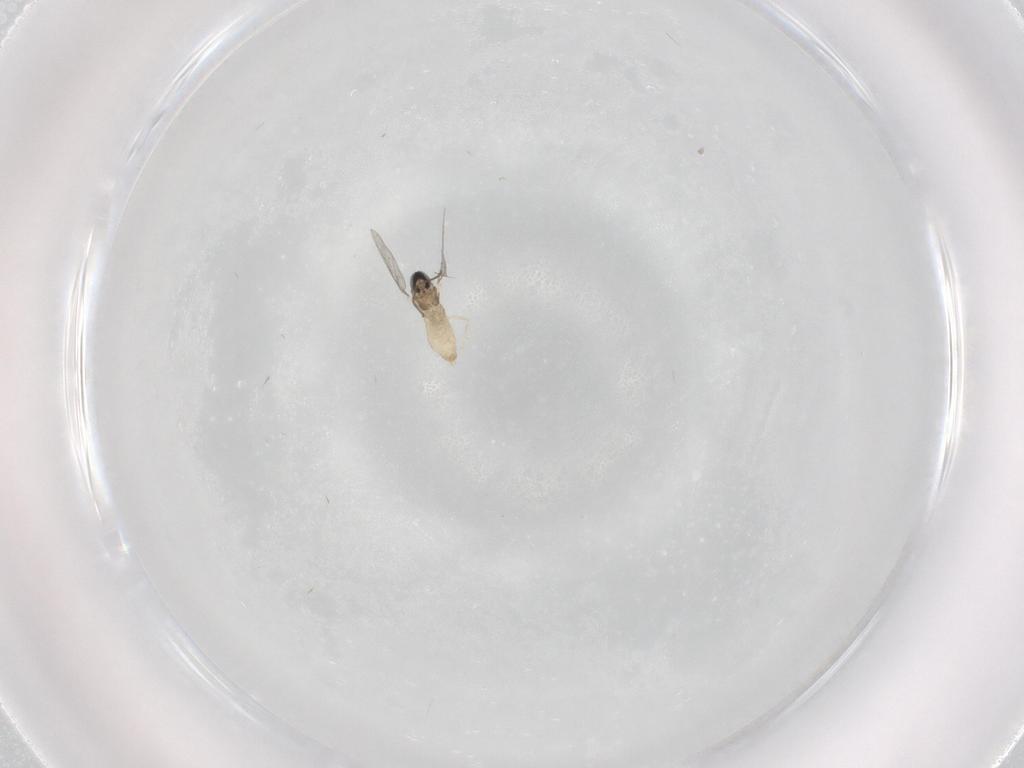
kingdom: Animalia
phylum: Arthropoda
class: Insecta
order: Diptera
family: Cecidomyiidae
